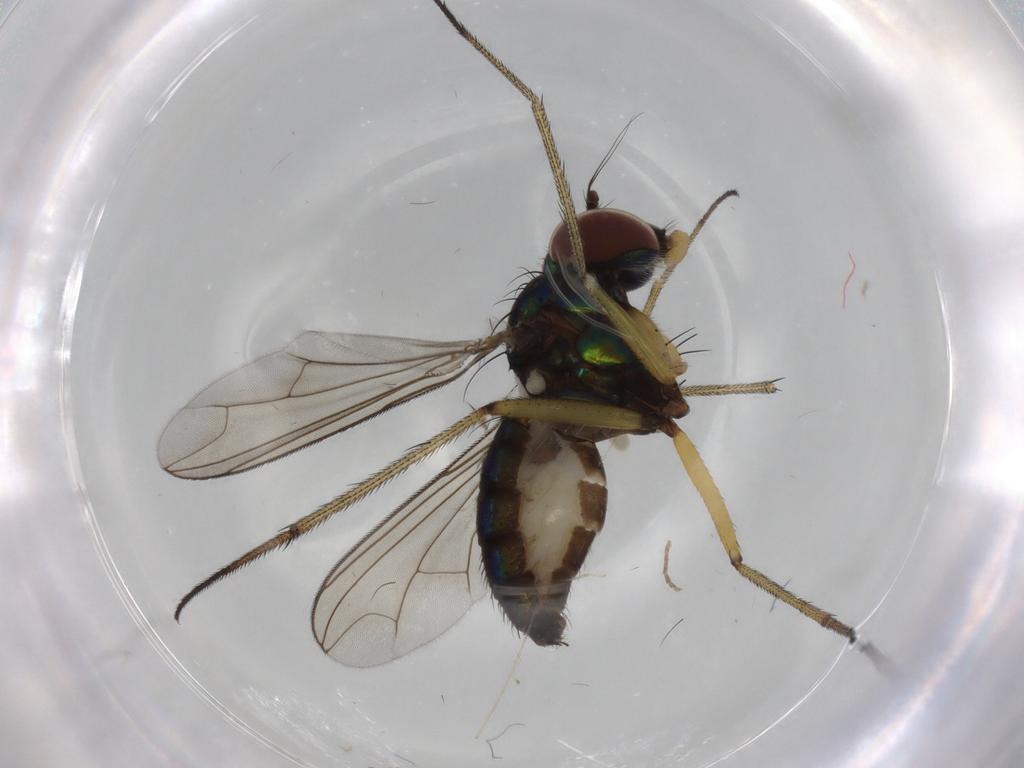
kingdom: Animalia
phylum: Arthropoda
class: Insecta
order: Diptera
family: Dolichopodidae
